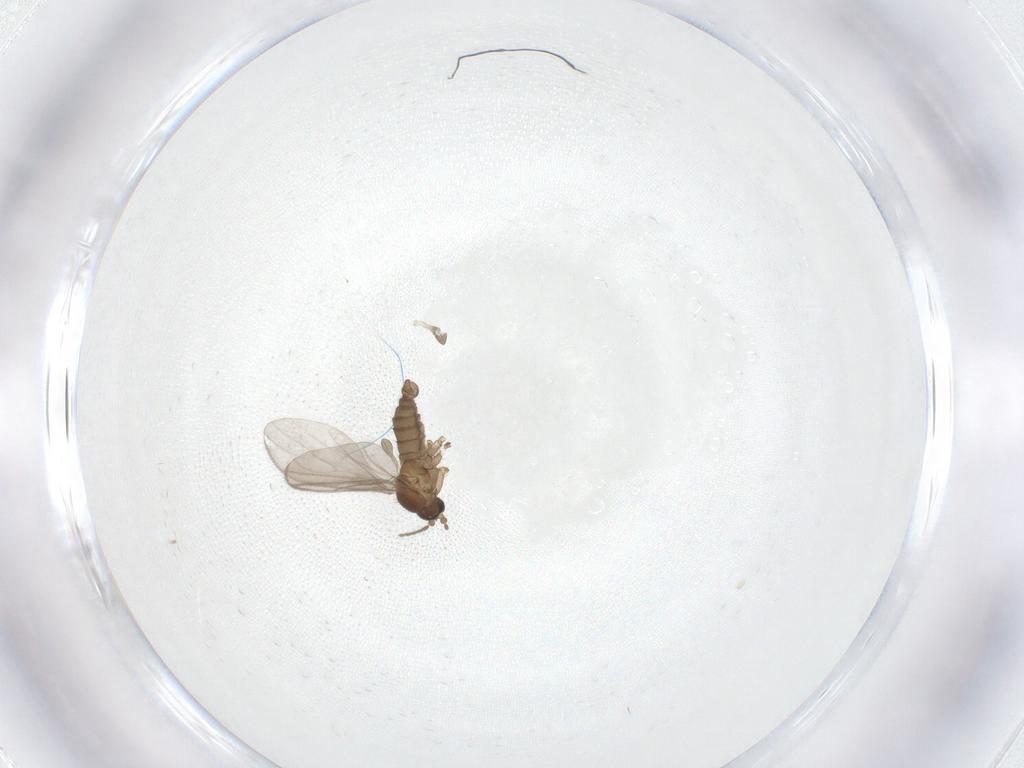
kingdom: Animalia
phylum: Arthropoda
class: Insecta
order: Diptera
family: Chironomidae
